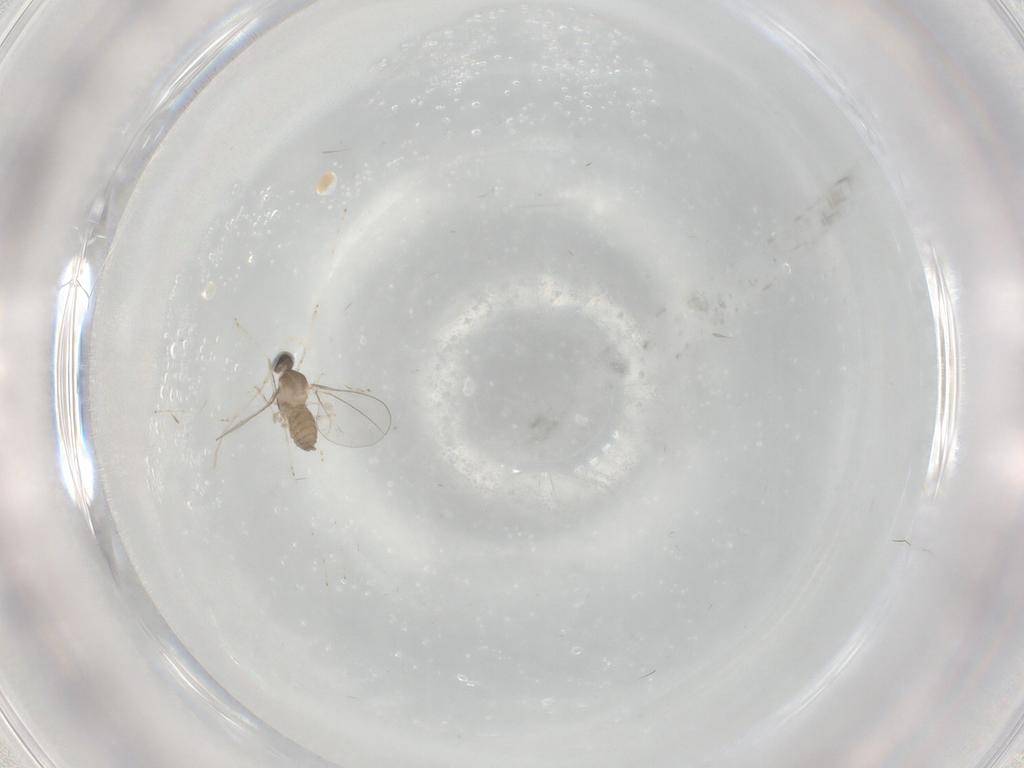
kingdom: Animalia
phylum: Arthropoda
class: Insecta
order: Diptera
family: Cecidomyiidae
